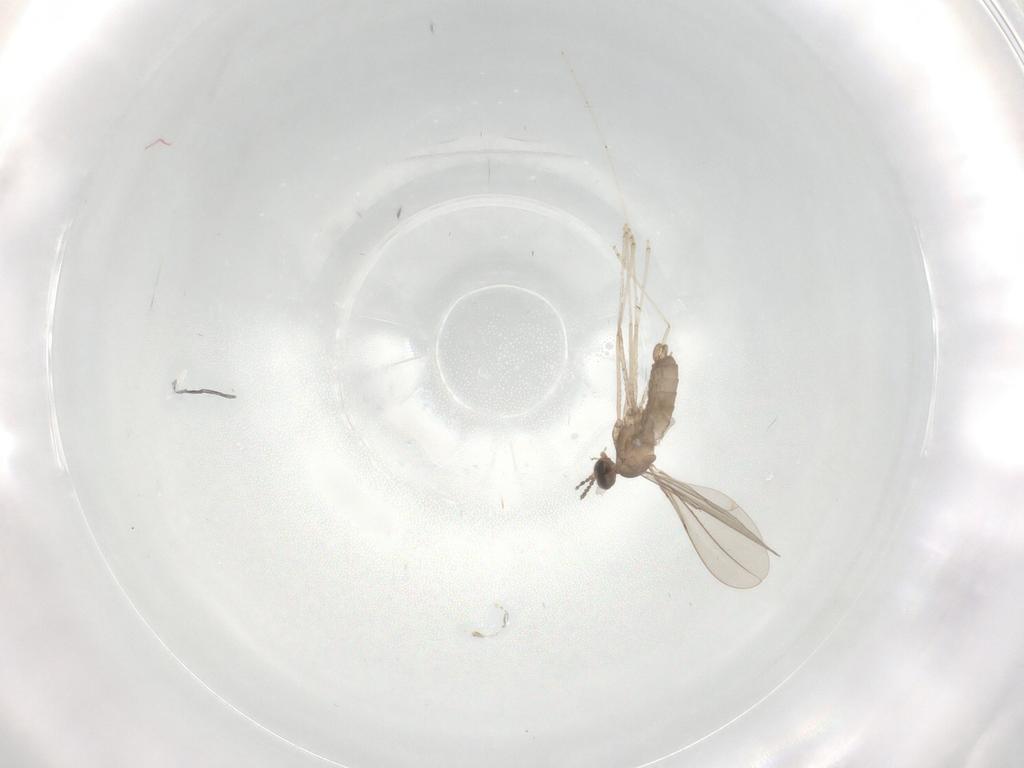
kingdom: Animalia
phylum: Arthropoda
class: Insecta
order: Diptera
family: Cecidomyiidae
